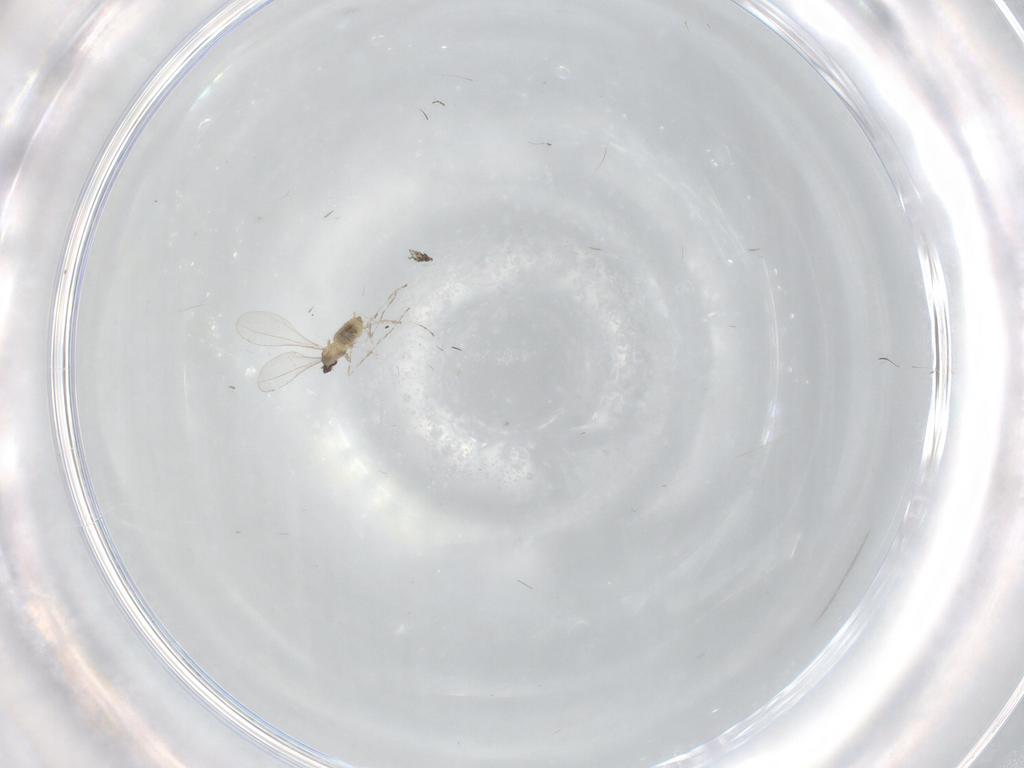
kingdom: Animalia
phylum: Arthropoda
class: Insecta
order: Diptera
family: Cecidomyiidae
